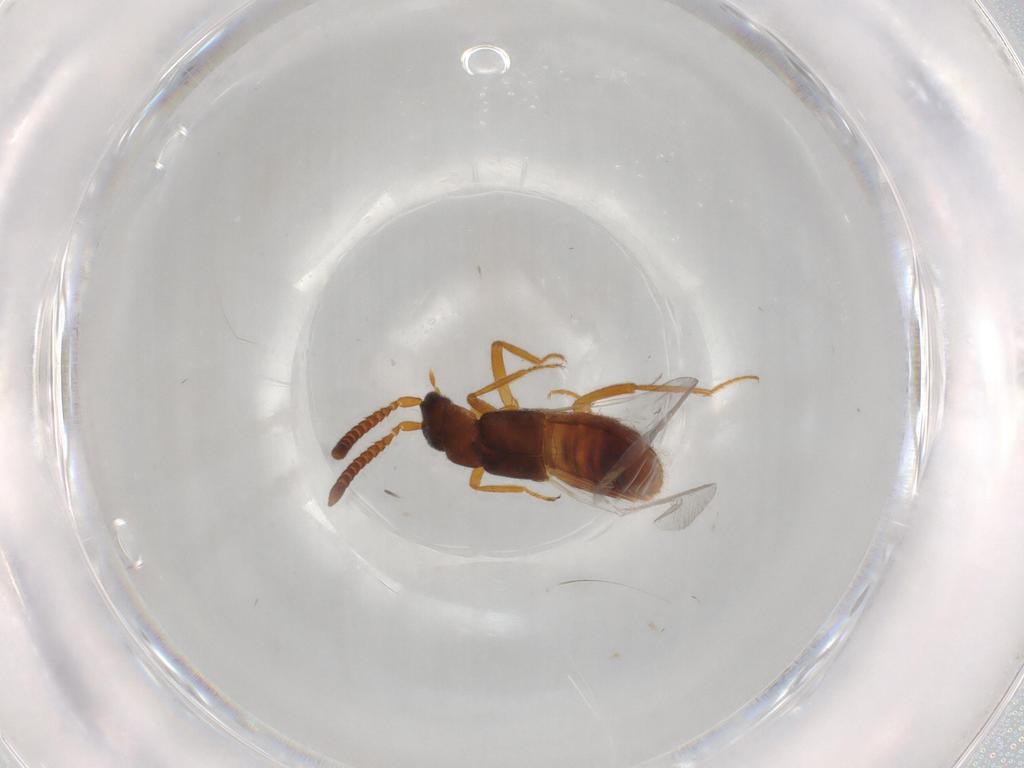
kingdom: Animalia
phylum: Arthropoda
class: Insecta
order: Coleoptera
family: Staphylinidae
